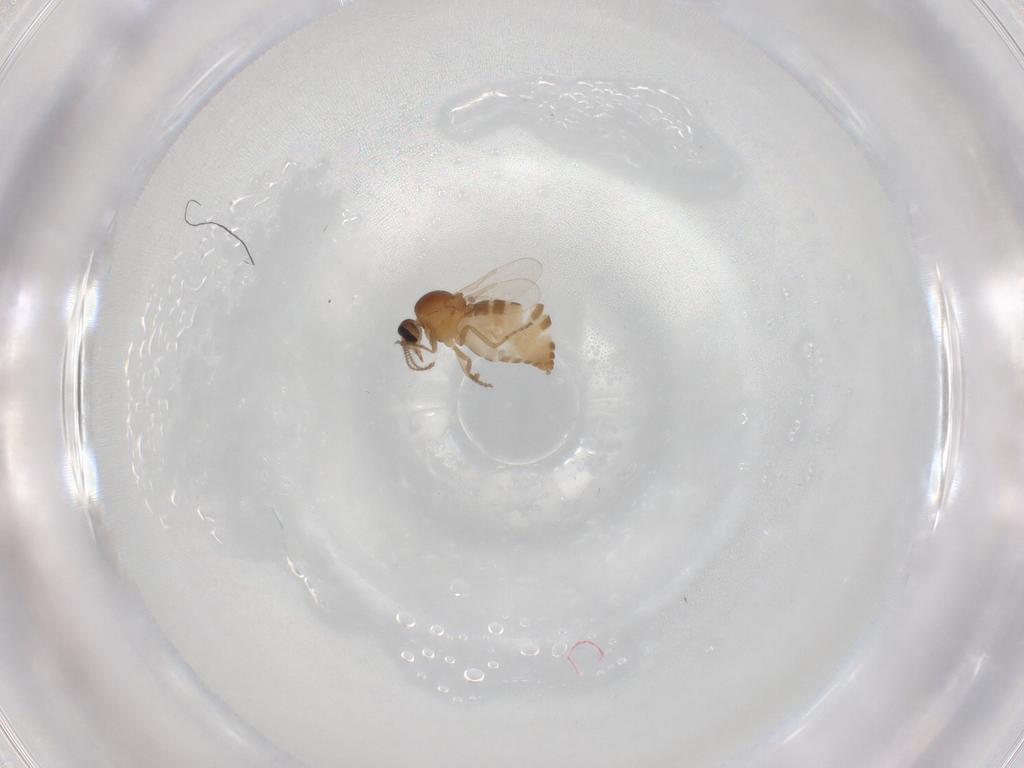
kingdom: Animalia
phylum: Arthropoda
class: Insecta
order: Diptera
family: Ceratopogonidae
